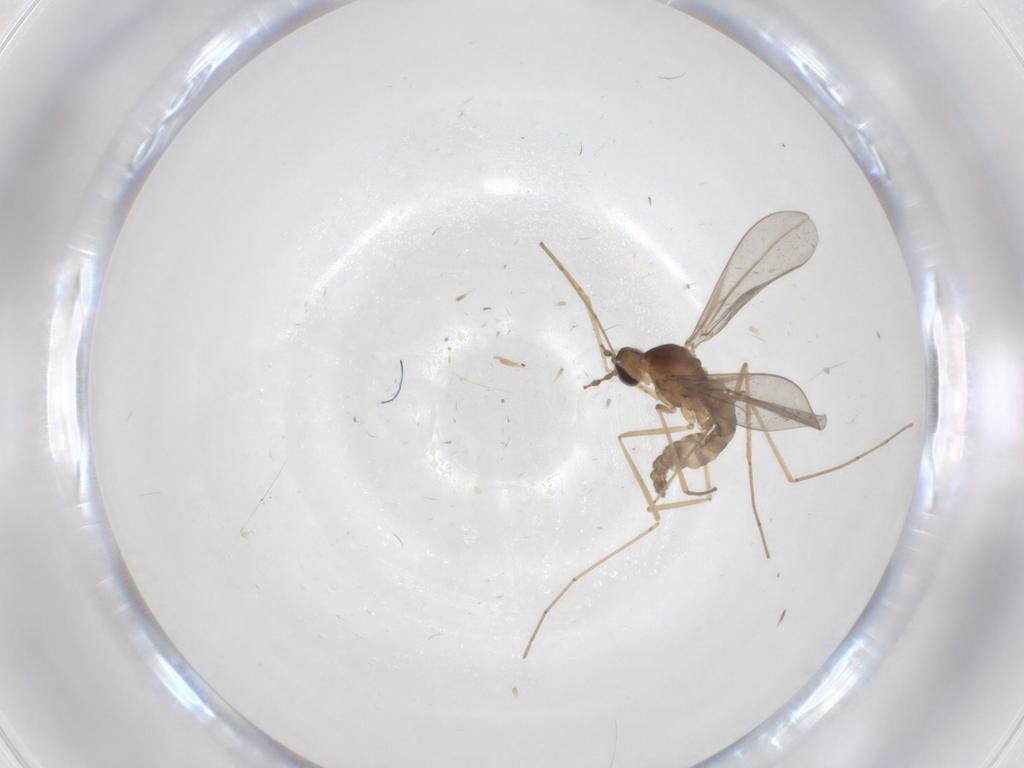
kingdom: Animalia
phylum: Arthropoda
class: Insecta
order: Diptera
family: Cecidomyiidae
